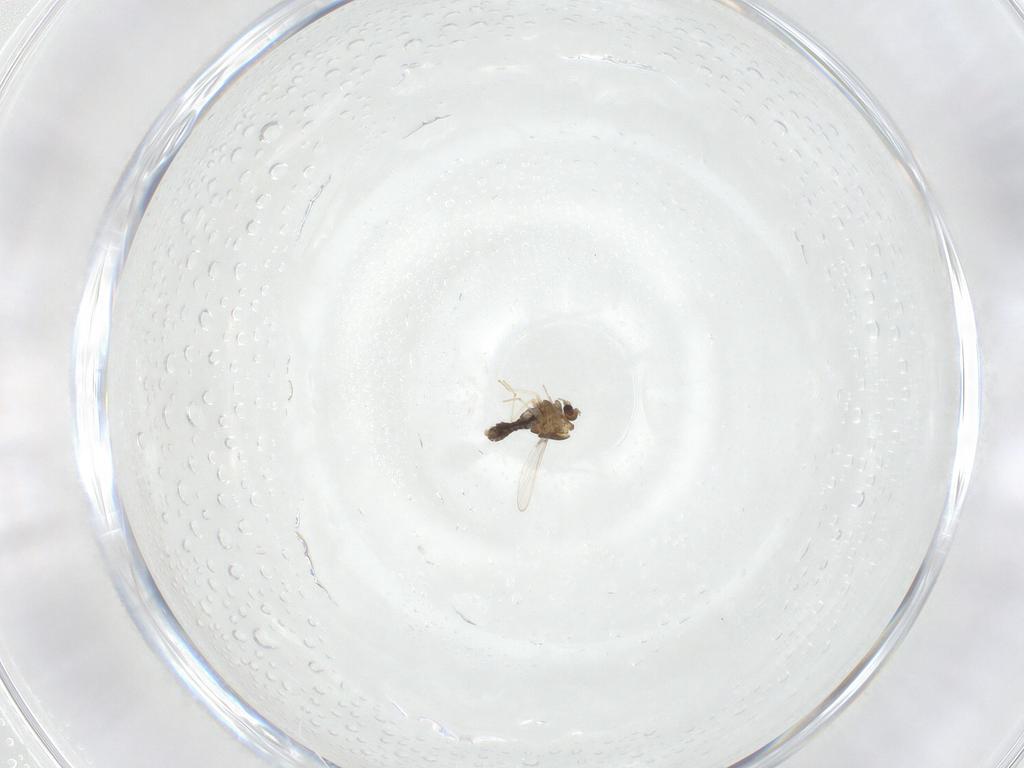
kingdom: Animalia
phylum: Arthropoda
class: Insecta
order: Diptera
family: Chironomidae
